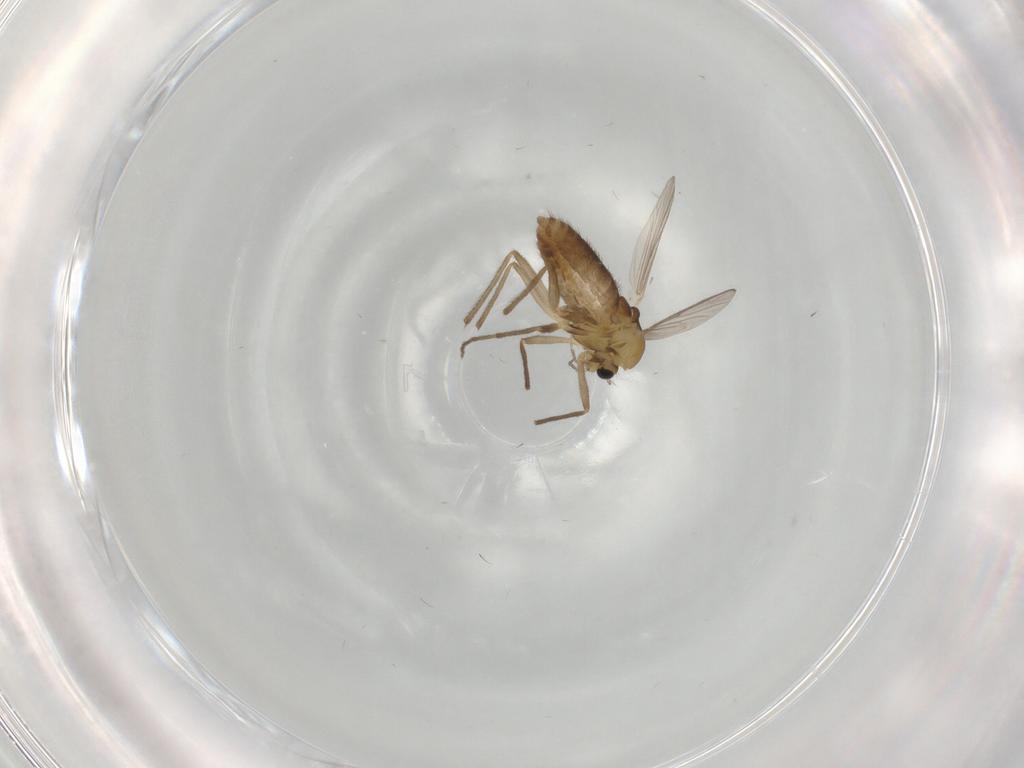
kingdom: Animalia
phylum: Arthropoda
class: Insecta
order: Diptera
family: Chironomidae
